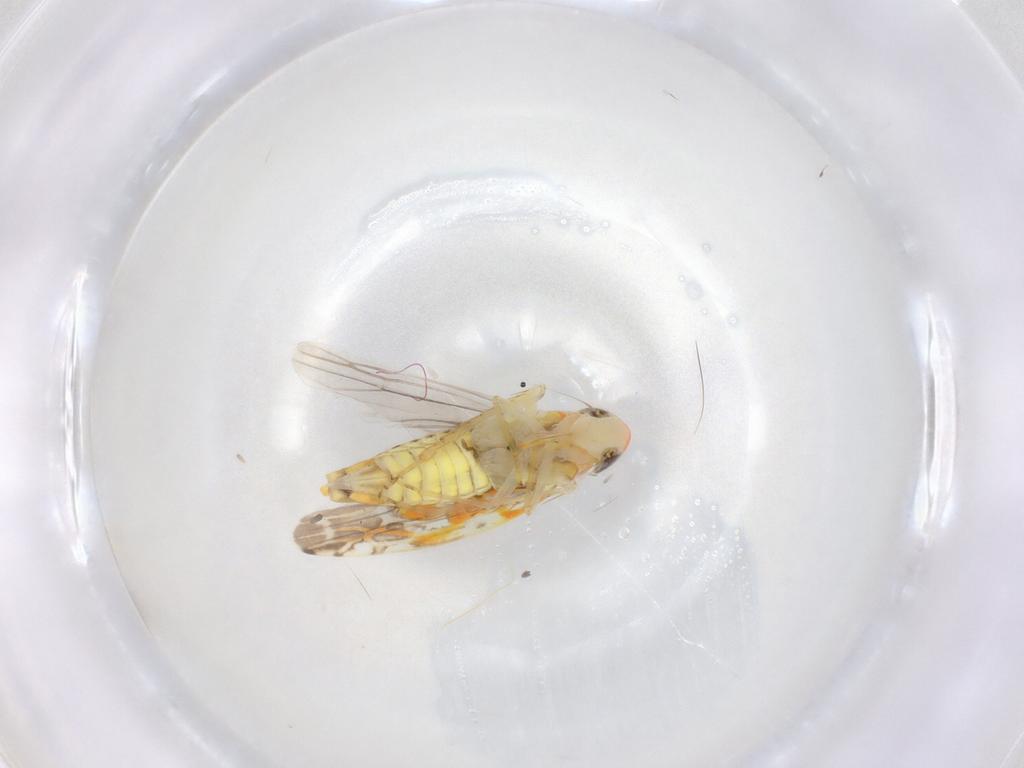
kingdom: Animalia
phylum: Arthropoda
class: Insecta
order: Hemiptera
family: Cicadellidae
